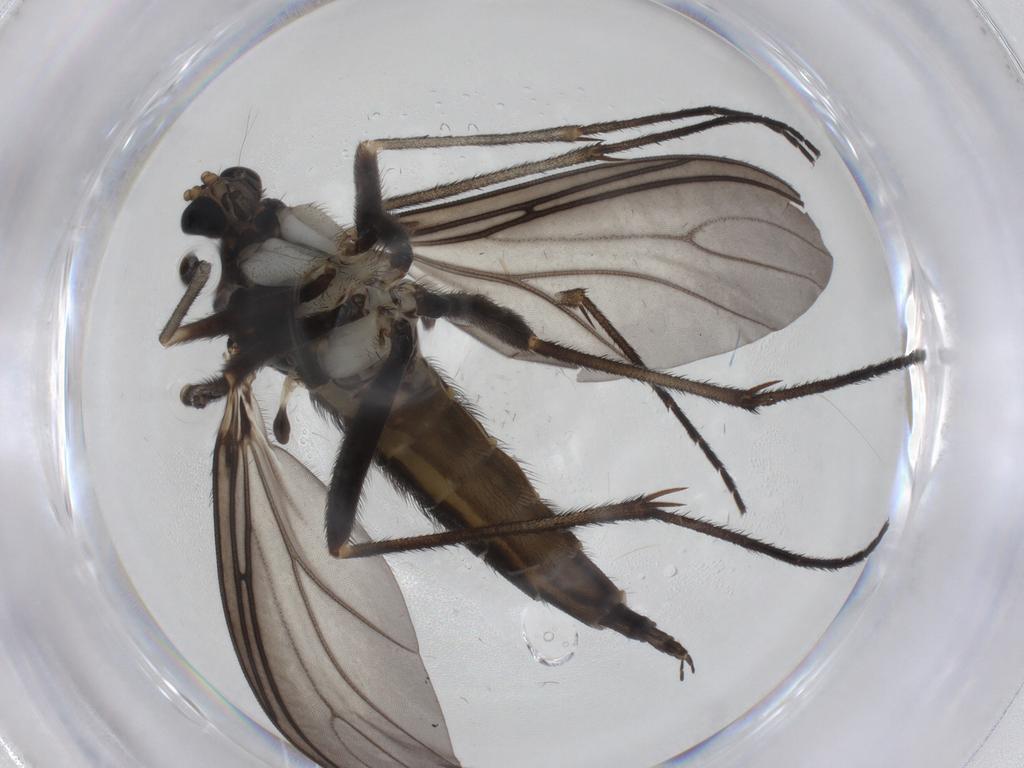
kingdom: Animalia
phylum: Arthropoda
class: Insecta
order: Diptera
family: Sciaridae
